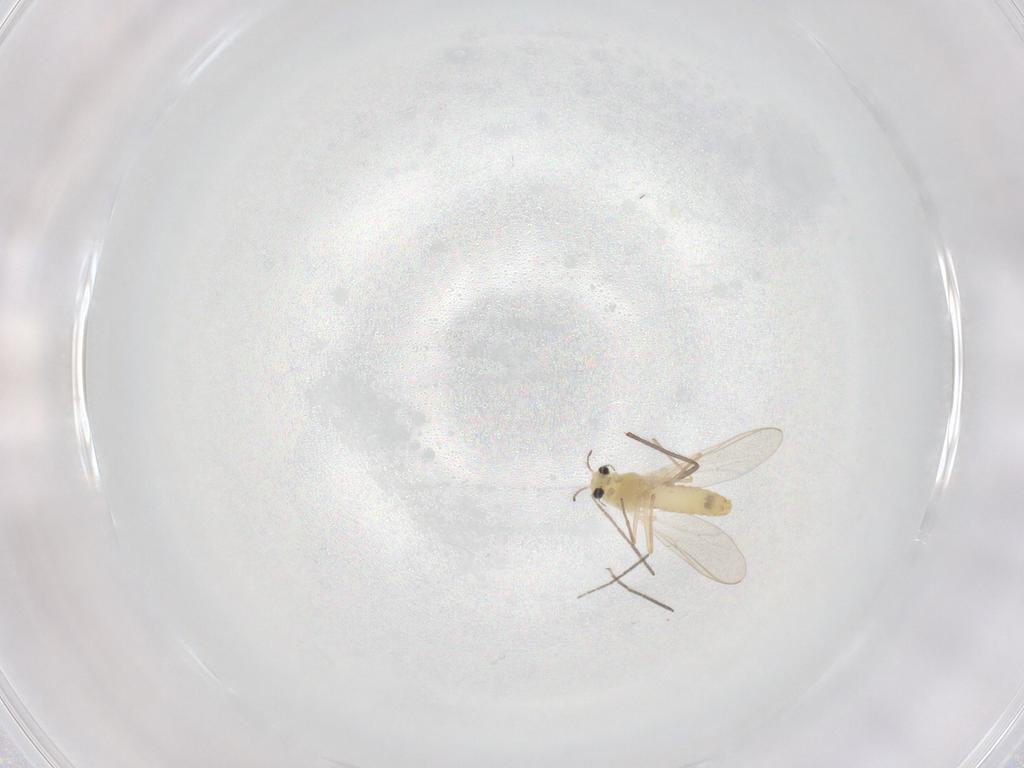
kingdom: Animalia
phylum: Arthropoda
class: Insecta
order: Diptera
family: Chironomidae
